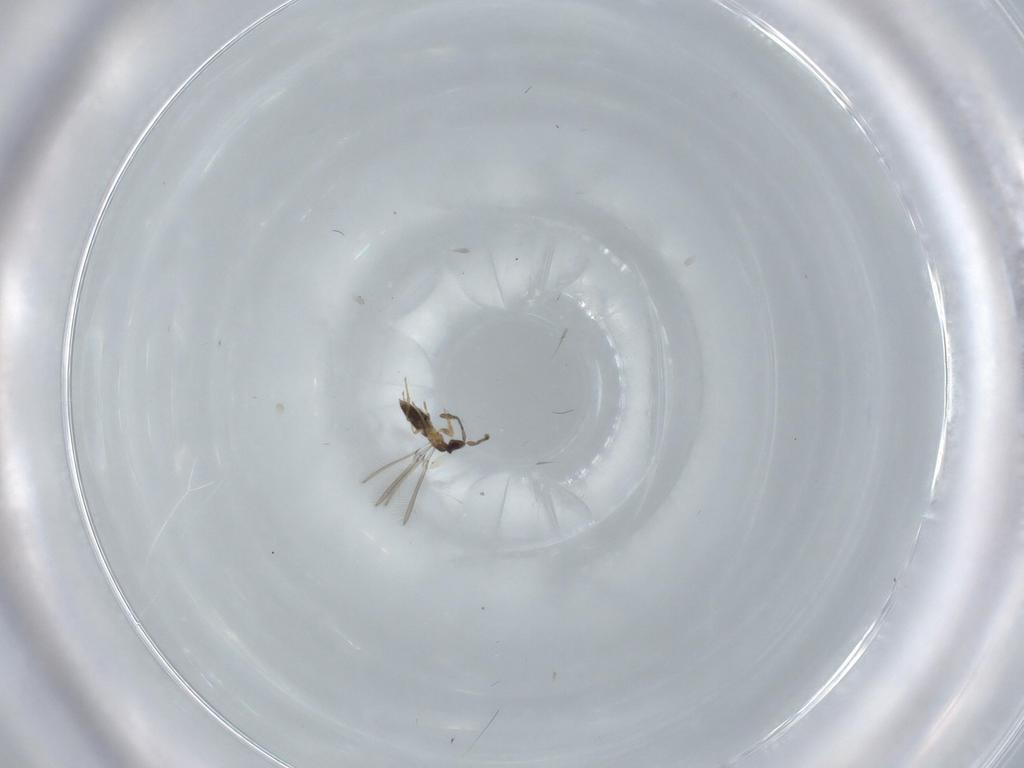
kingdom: Animalia
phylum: Arthropoda
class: Insecta
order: Hymenoptera
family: Mymaridae
